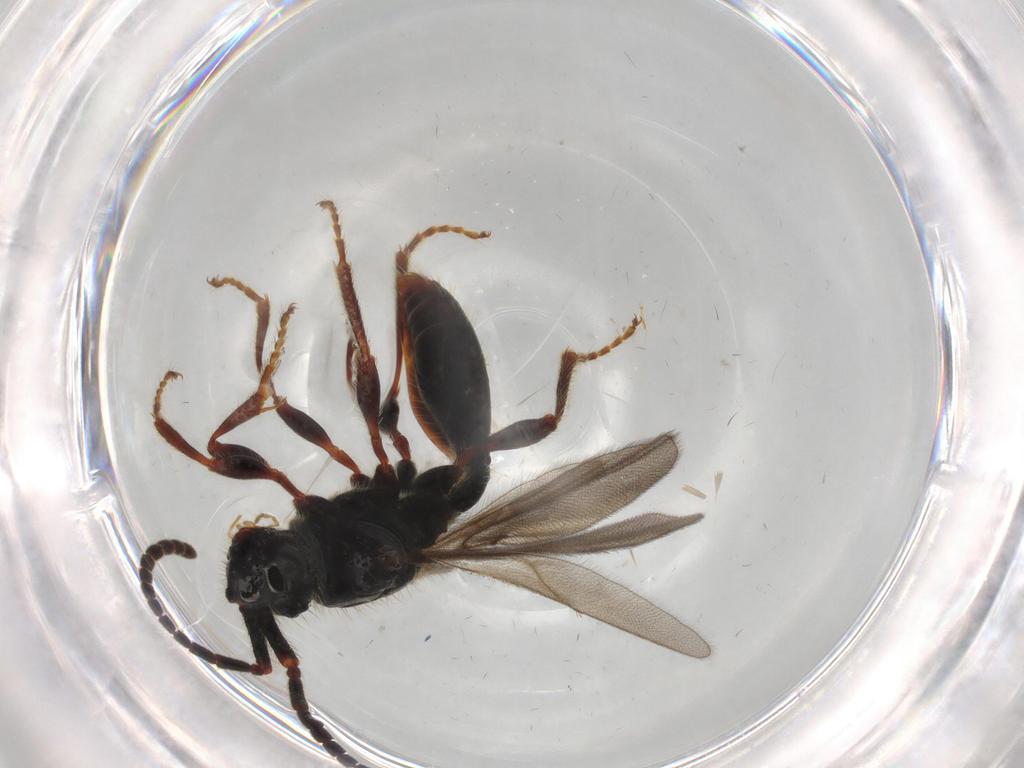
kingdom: Animalia
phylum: Arthropoda
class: Insecta
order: Hymenoptera
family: Diapriidae
